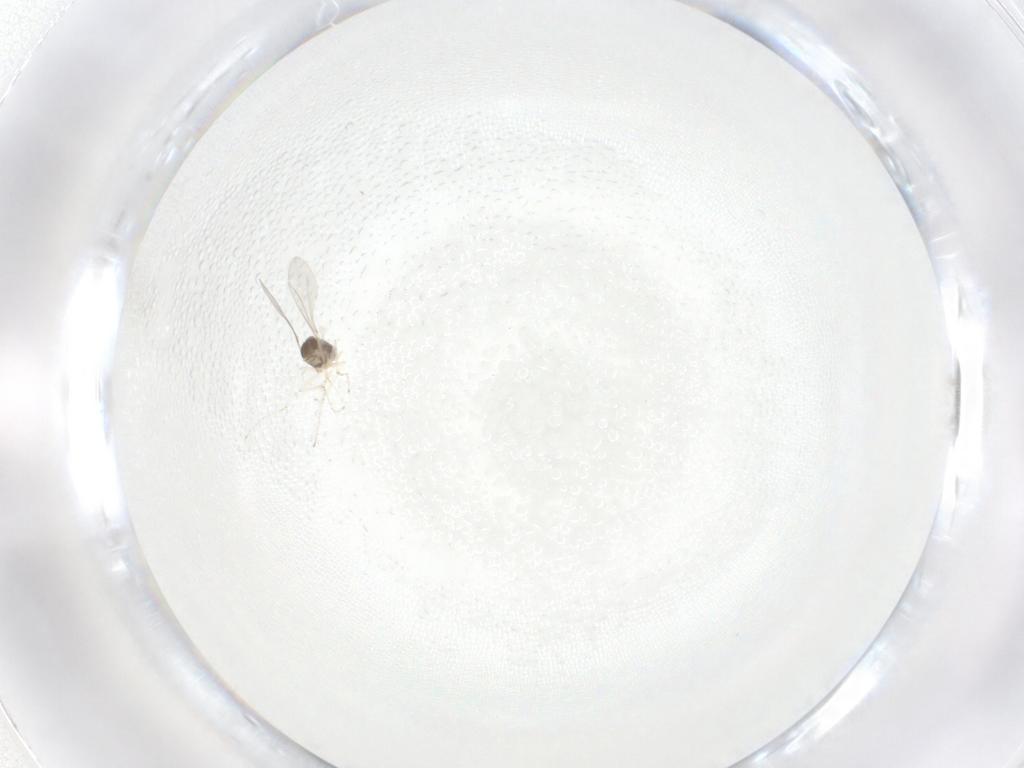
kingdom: Animalia
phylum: Arthropoda
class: Insecta
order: Diptera
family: Cecidomyiidae
